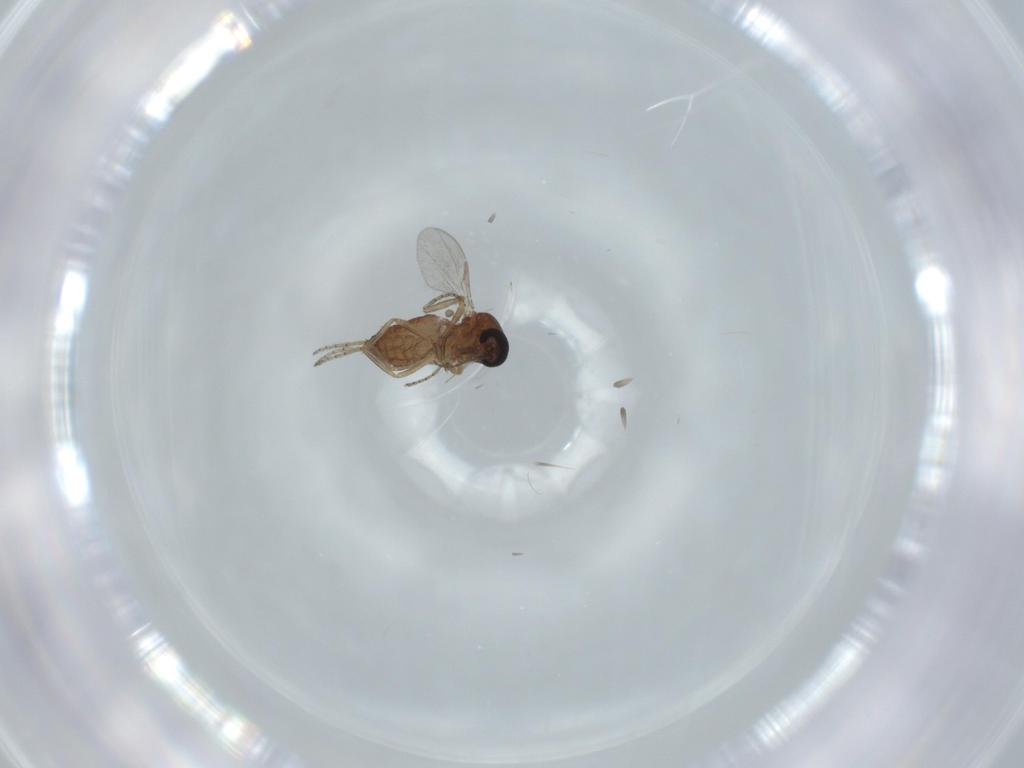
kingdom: Animalia
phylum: Arthropoda
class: Insecta
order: Diptera
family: Ceratopogonidae
